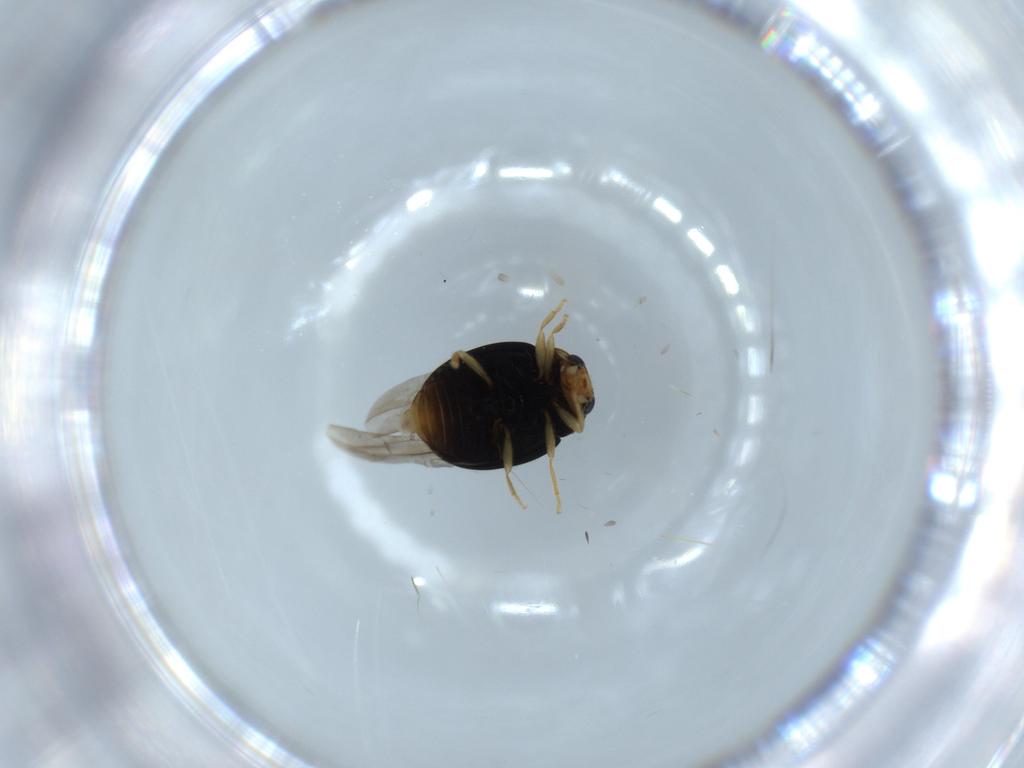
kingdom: Animalia
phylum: Arthropoda
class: Insecta
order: Coleoptera
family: Coccinellidae
